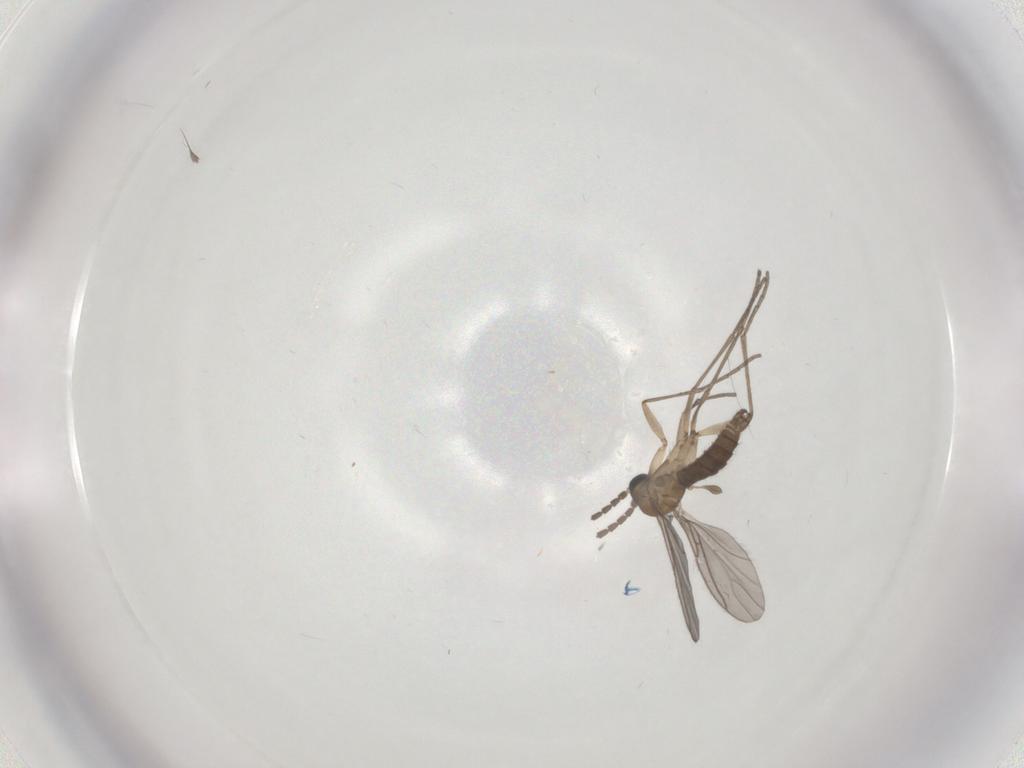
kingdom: Animalia
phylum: Arthropoda
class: Insecta
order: Diptera
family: Sciaridae
